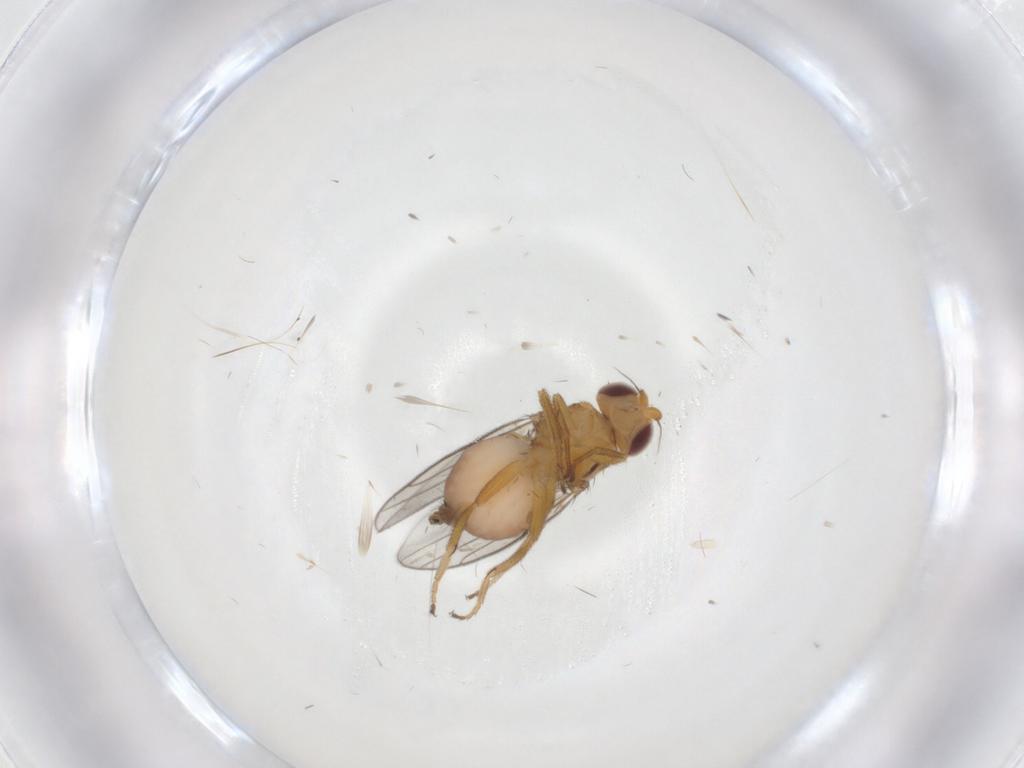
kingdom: Animalia
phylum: Arthropoda
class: Insecta
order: Diptera
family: Chloropidae
